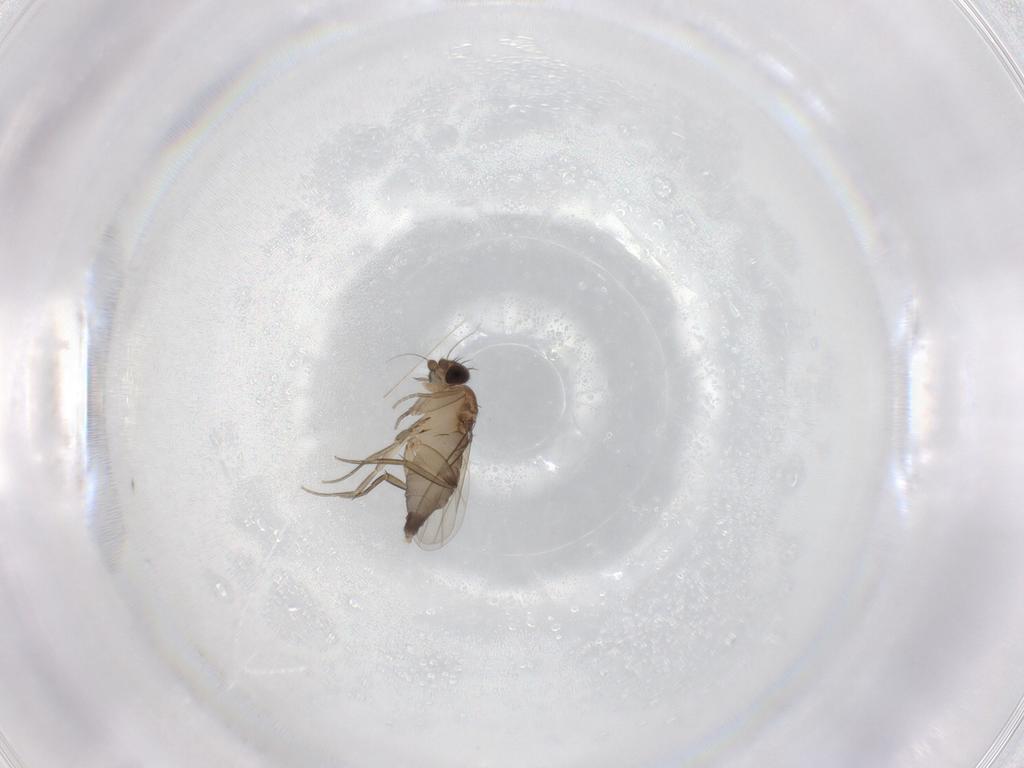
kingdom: Animalia
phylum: Arthropoda
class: Insecta
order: Diptera
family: Phoridae
